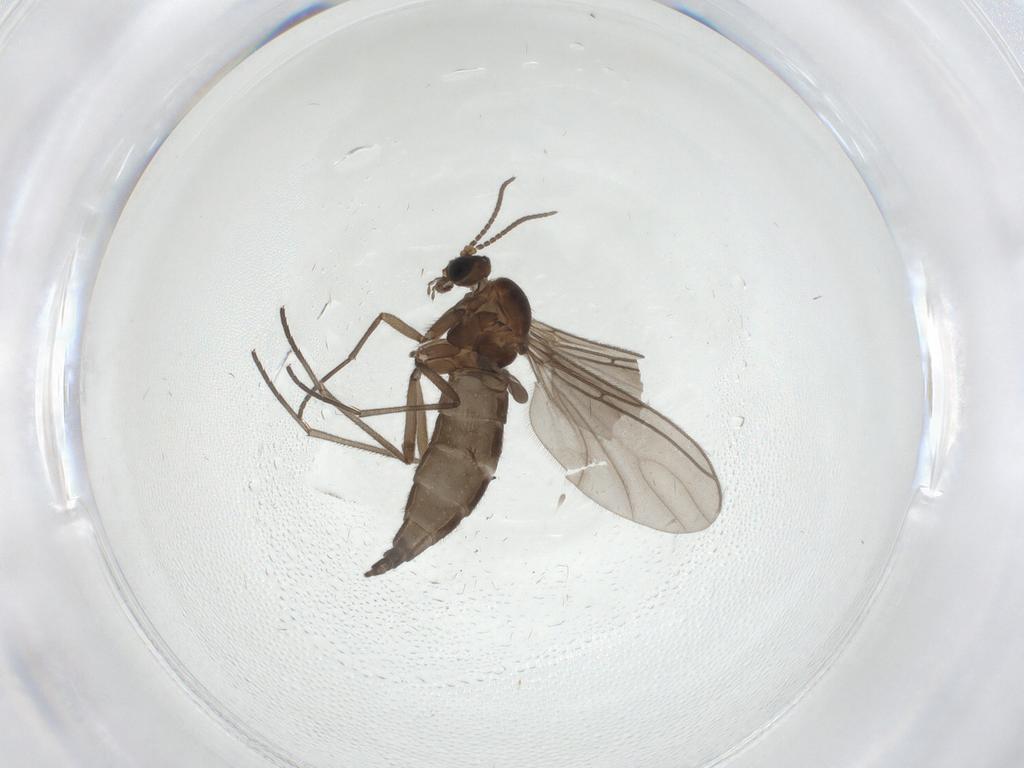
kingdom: Animalia
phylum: Arthropoda
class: Insecta
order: Diptera
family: Sciaridae
